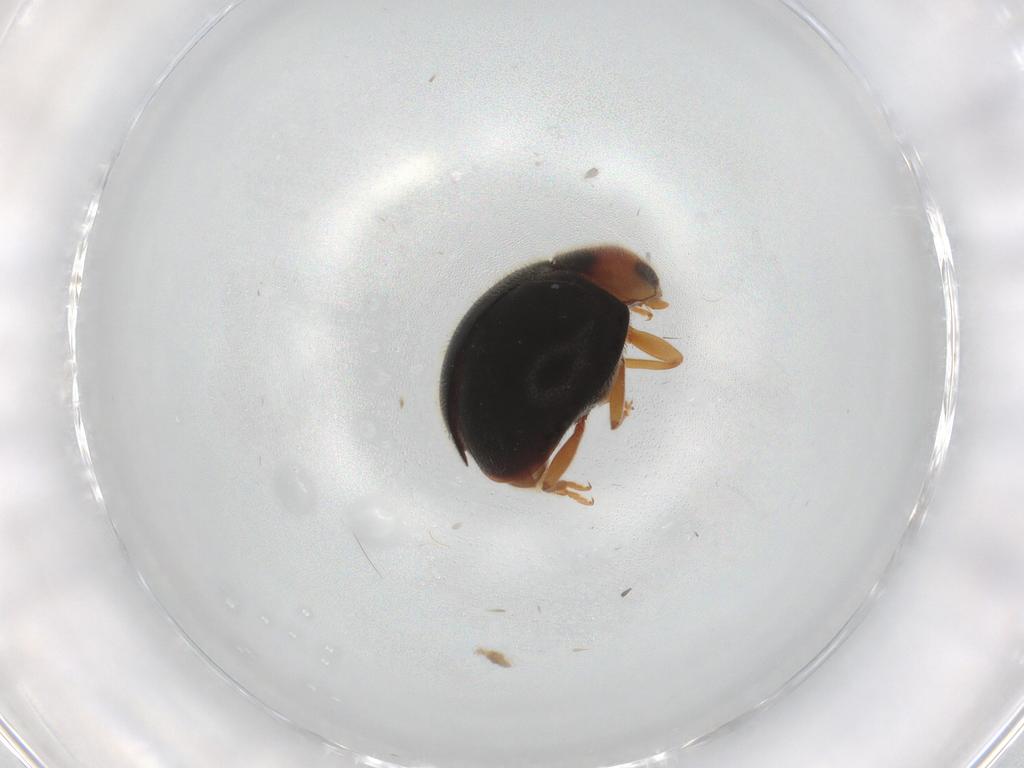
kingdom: Animalia
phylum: Arthropoda
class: Insecta
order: Coleoptera
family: Coccinellidae
